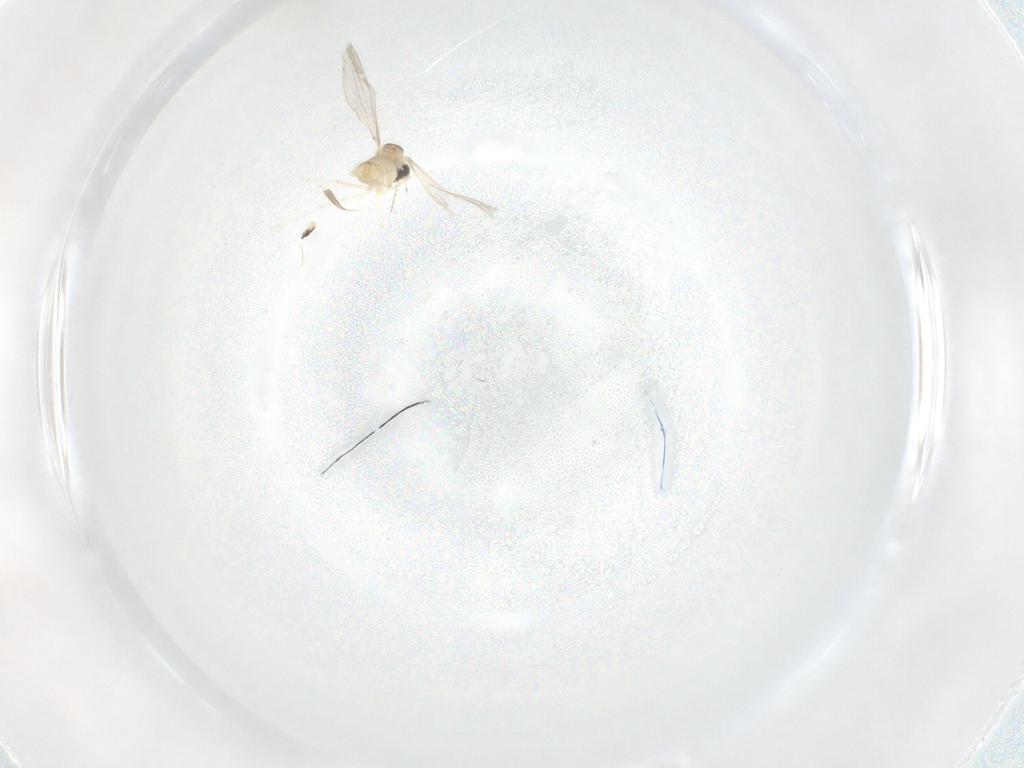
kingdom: Animalia
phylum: Arthropoda
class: Insecta
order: Diptera
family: Cecidomyiidae
